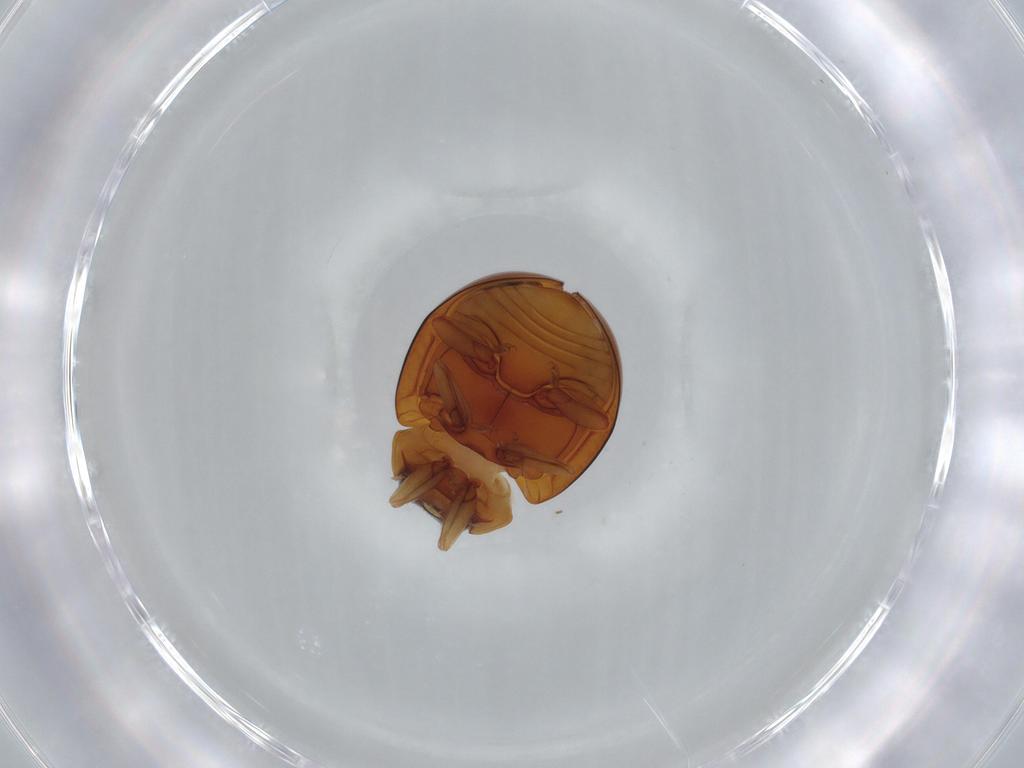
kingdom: Animalia
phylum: Arthropoda
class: Insecta
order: Coleoptera
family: Coccinellidae
